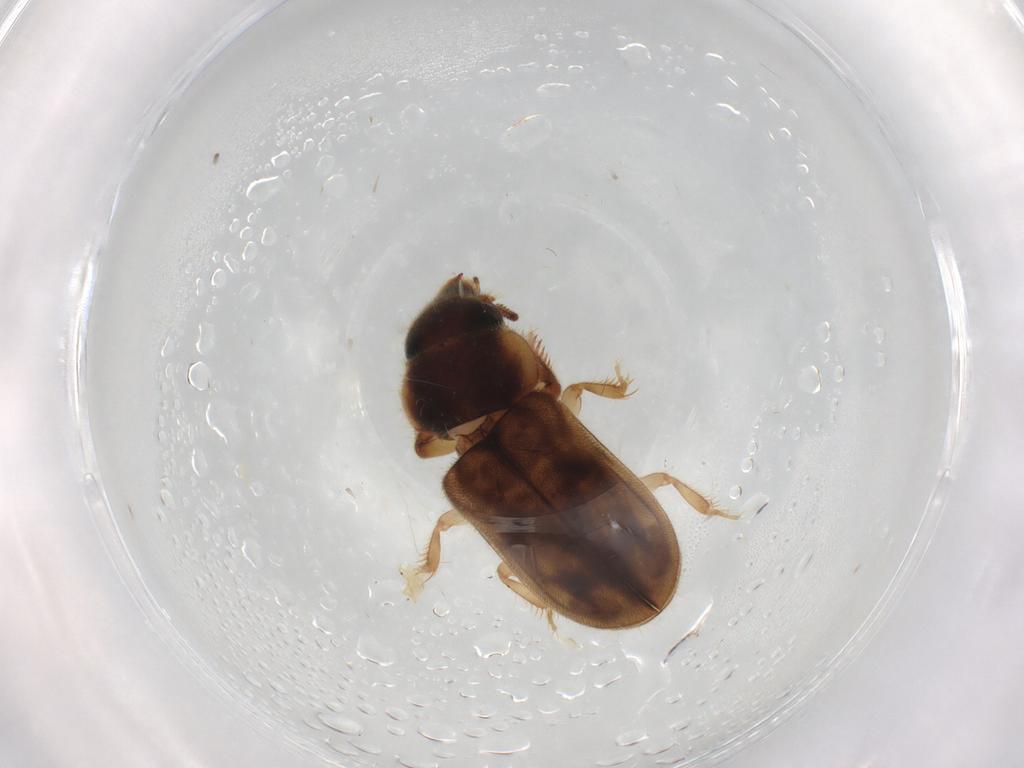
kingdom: Animalia
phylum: Arthropoda
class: Insecta
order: Coleoptera
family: Heteroceridae
